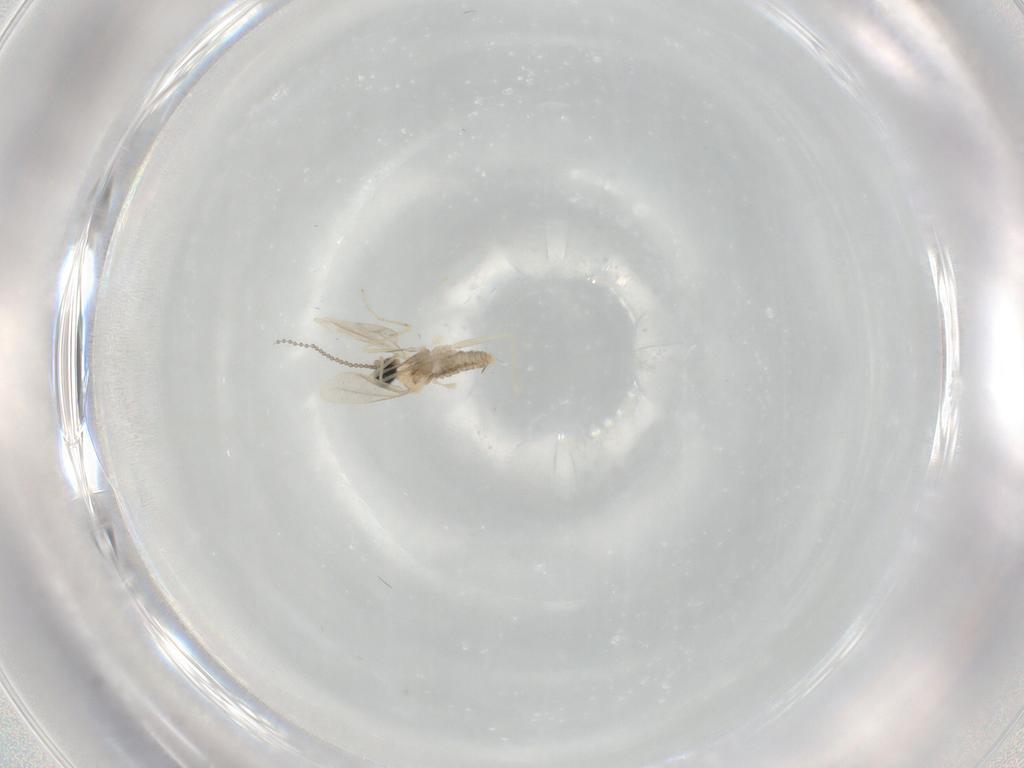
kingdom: Animalia
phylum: Arthropoda
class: Insecta
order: Diptera
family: Cecidomyiidae
